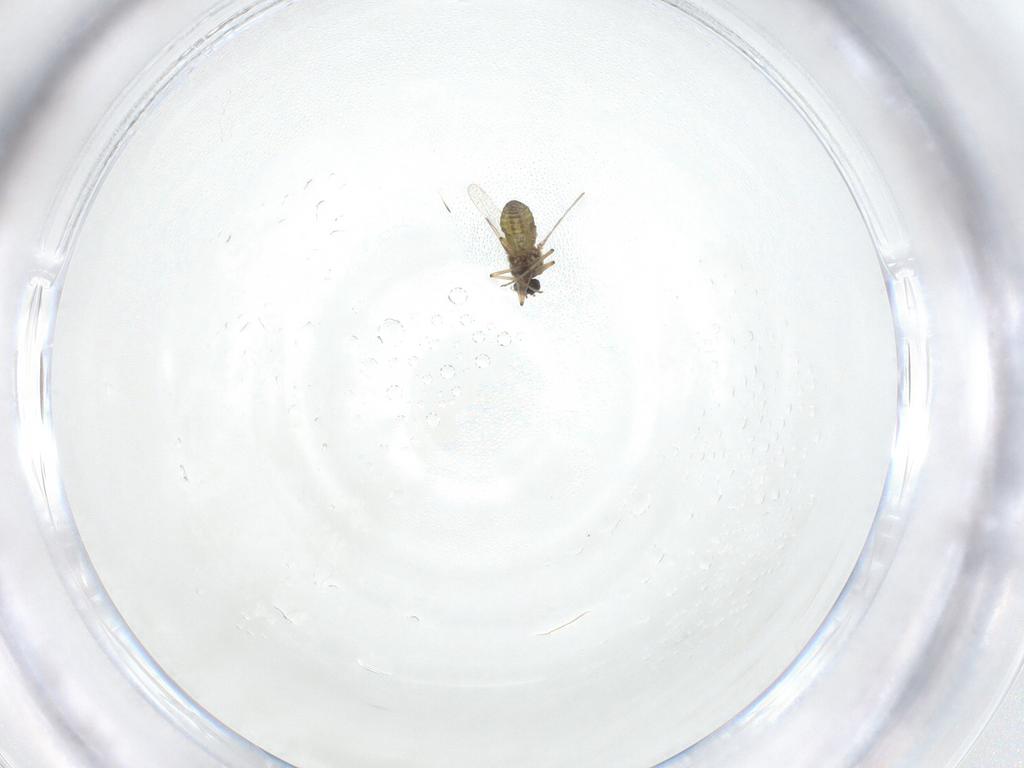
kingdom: Animalia
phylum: Arthropoda
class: Insecta
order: Diptera
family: Ceratopogonidae
